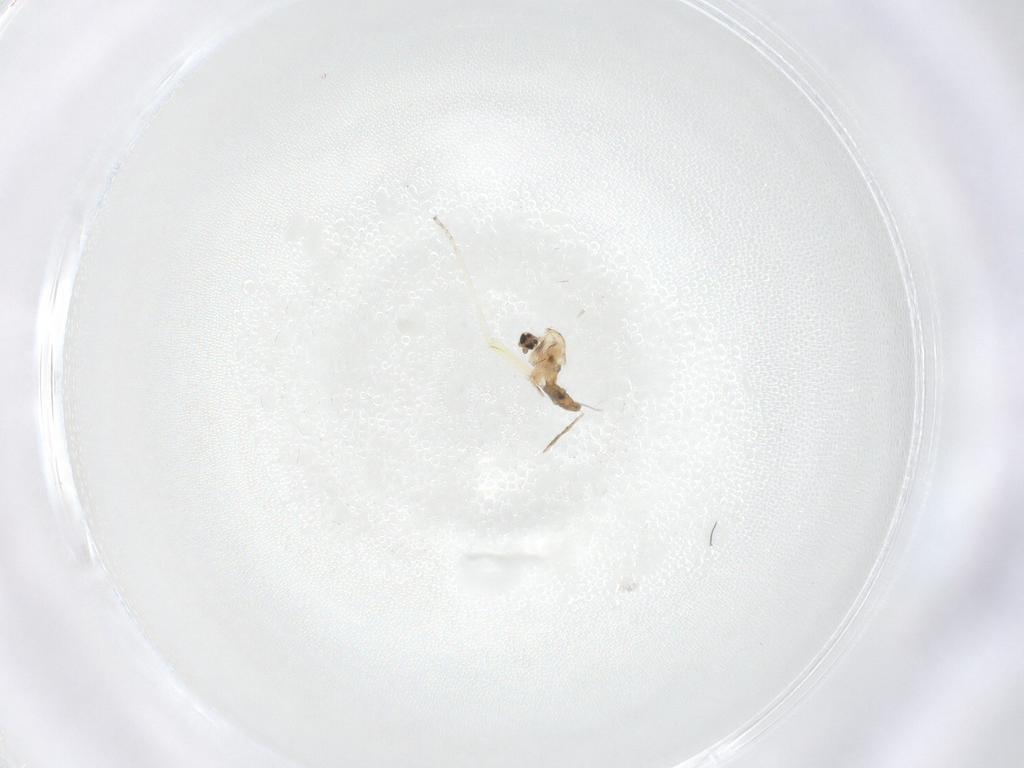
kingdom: Animalia
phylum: Arthropoda
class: Insecta
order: Diptera
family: Cecidomyiidae
